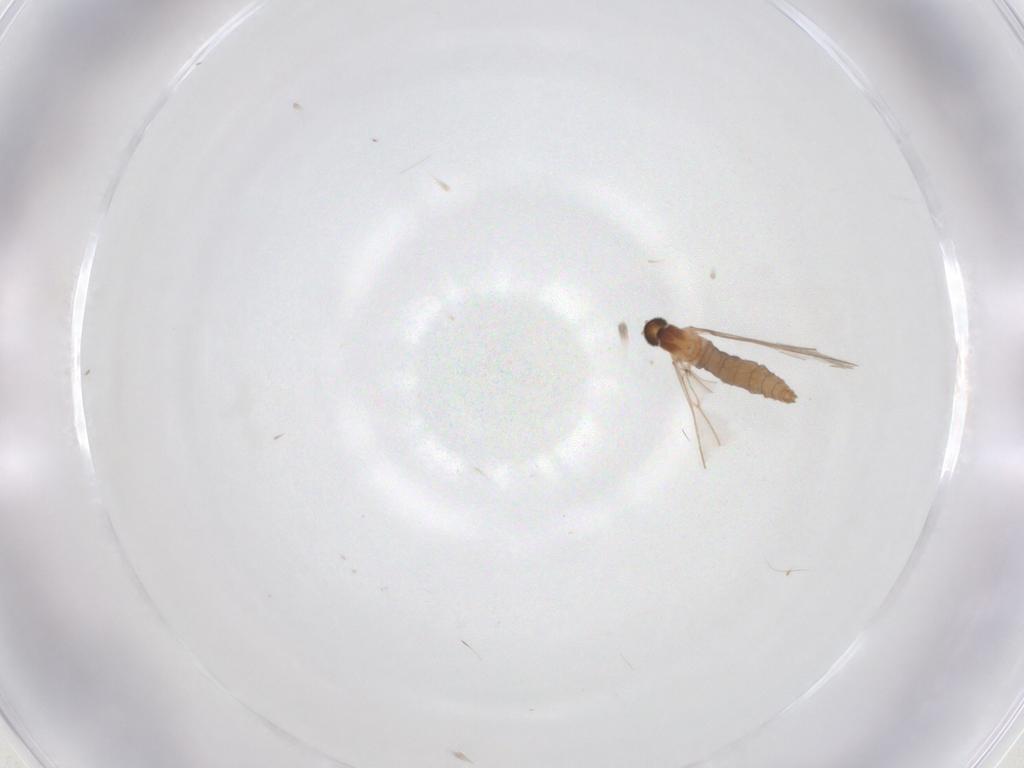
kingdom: Animalia
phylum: Arthropoda
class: Insecta
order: Diptera
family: Cecidomyiidae
